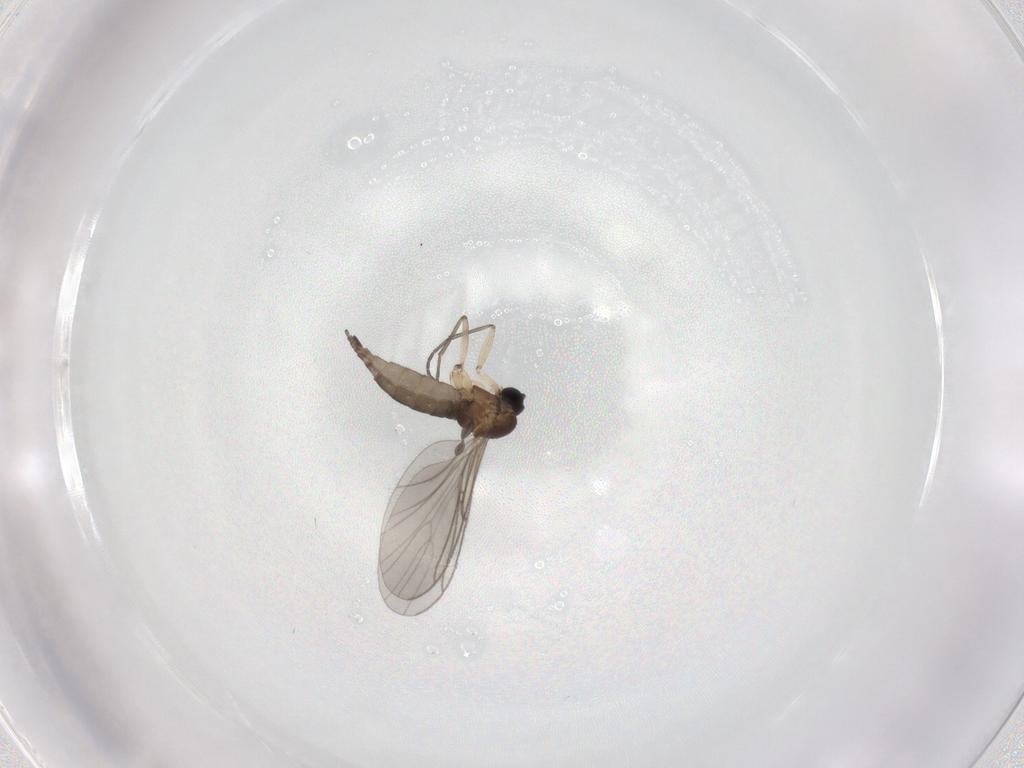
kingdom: Animalia
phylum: Arthropoda
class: Insecta
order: Diptera
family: Sciaridae
